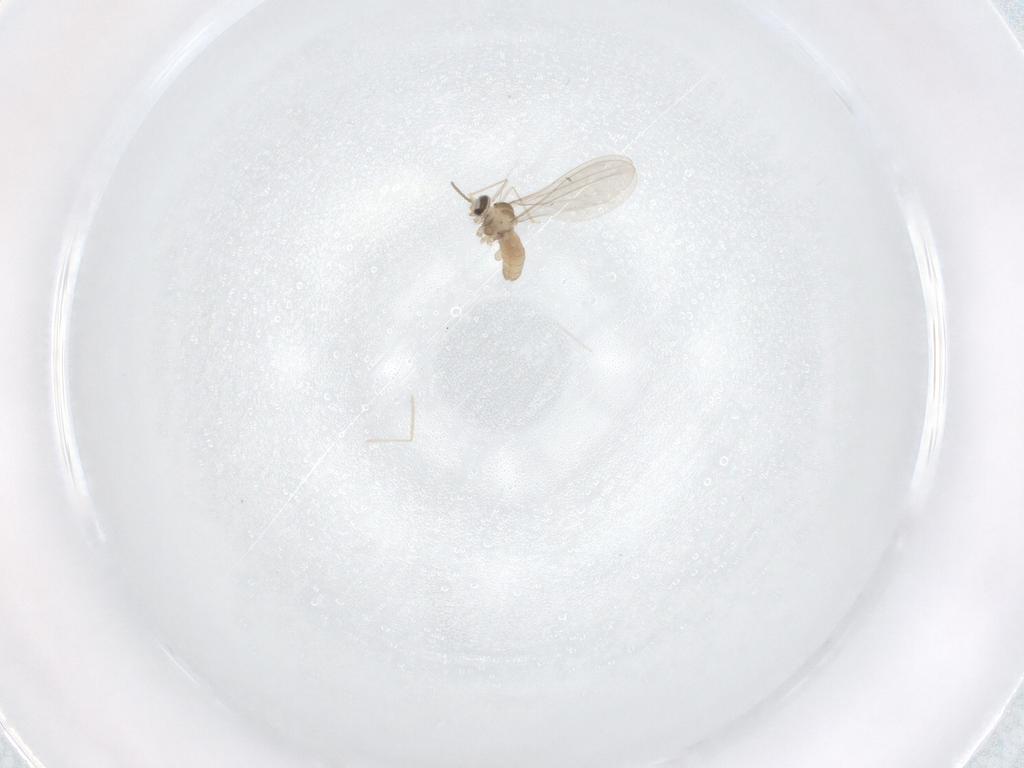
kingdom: Animalia
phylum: Arthropoda
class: Insecta
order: Diptera
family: Cecidomyiidae
